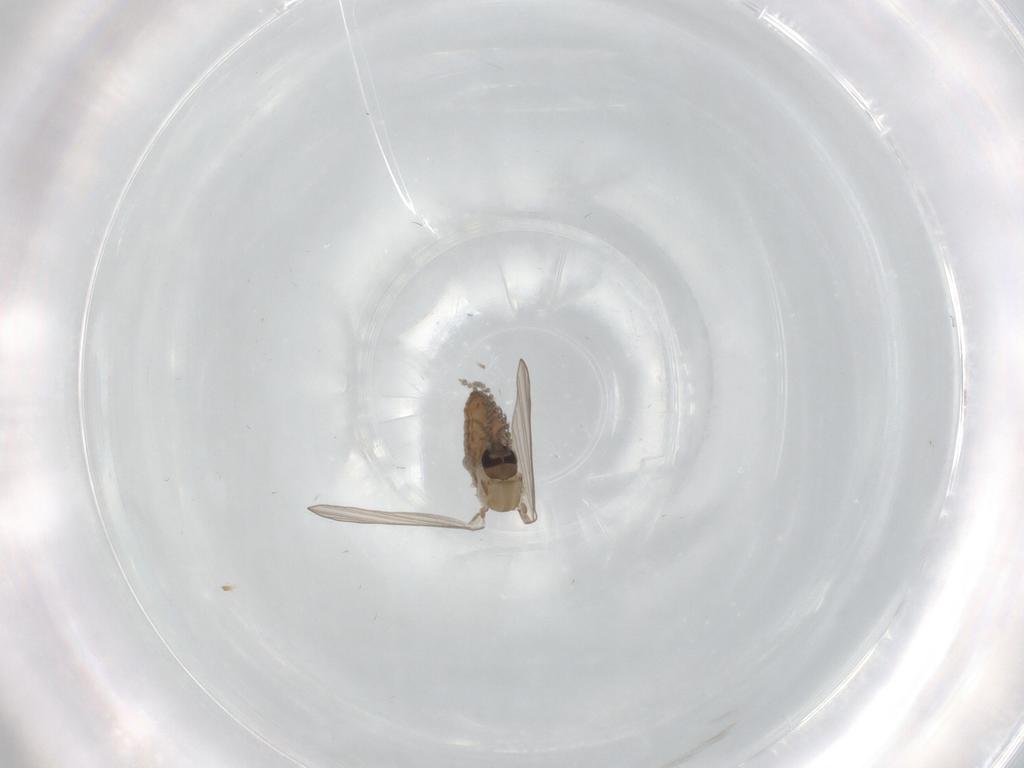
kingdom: Animalia
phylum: Arthropoda
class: Insecta
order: Diptera
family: Psychodidae
